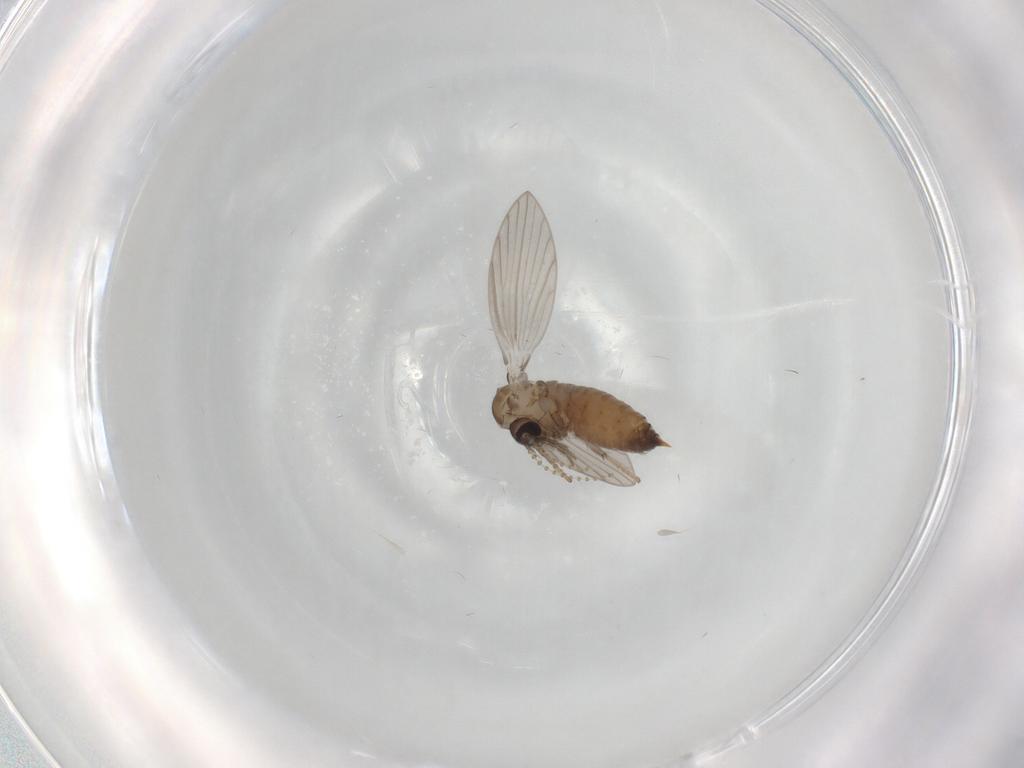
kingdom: Animalia
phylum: Arthropoda
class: Insecta
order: Diptera
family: Psychodidae
